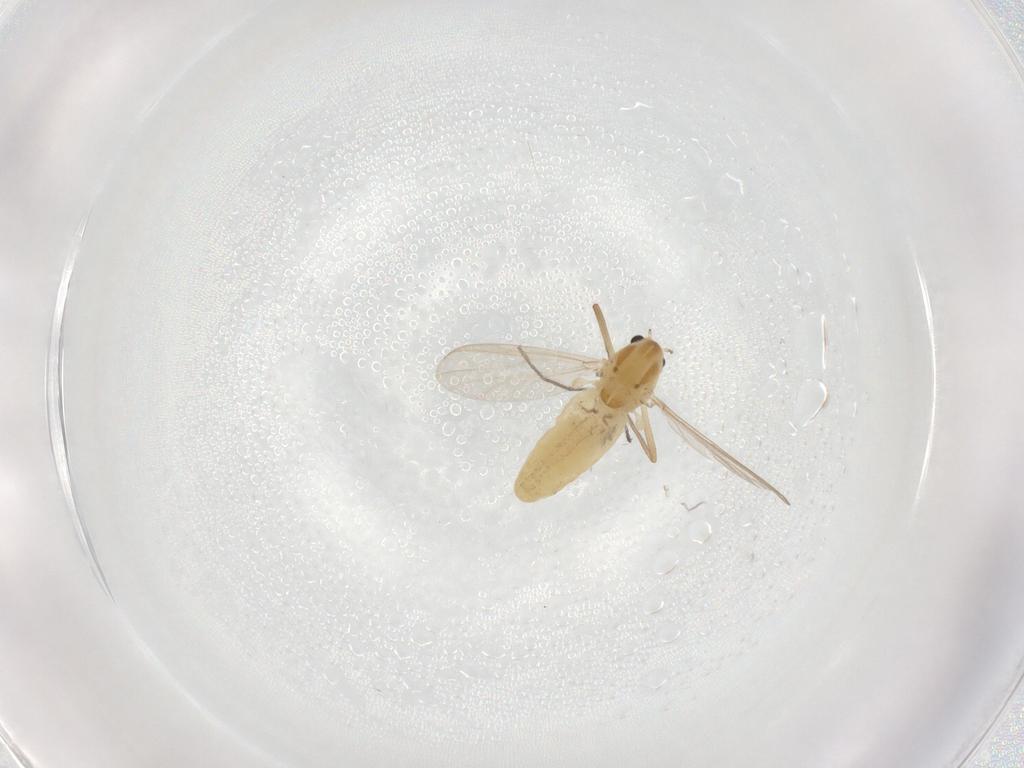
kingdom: Animalia
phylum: Arthropoda
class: Insecta
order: Diptera
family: Chironomidae
